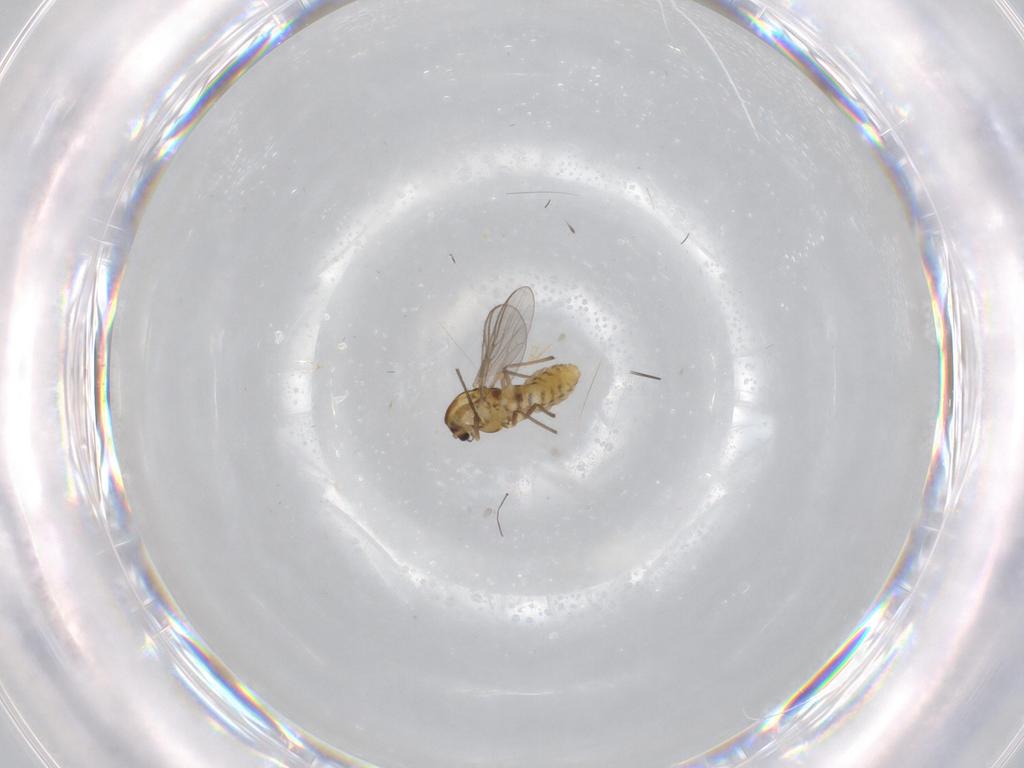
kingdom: Animalia
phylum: Arthropoda
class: Insecta
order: Diptera
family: Chironomidae
